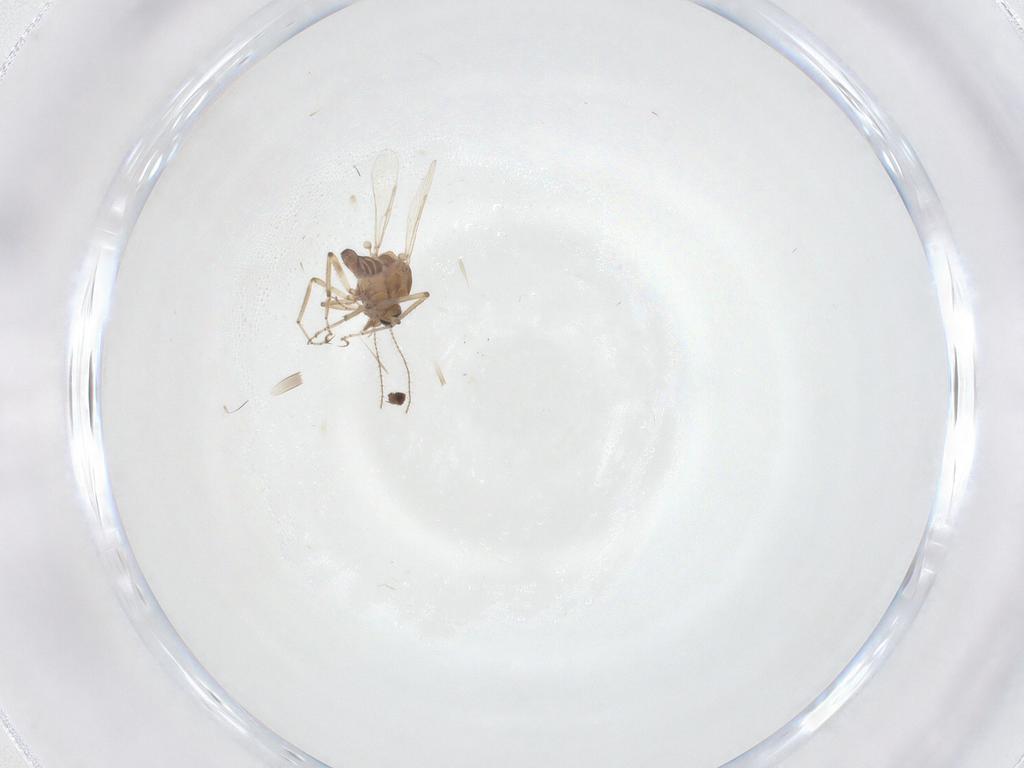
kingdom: Animalia
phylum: Arthropoda
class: Insecta
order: Diptera
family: Ceratopogonidae
